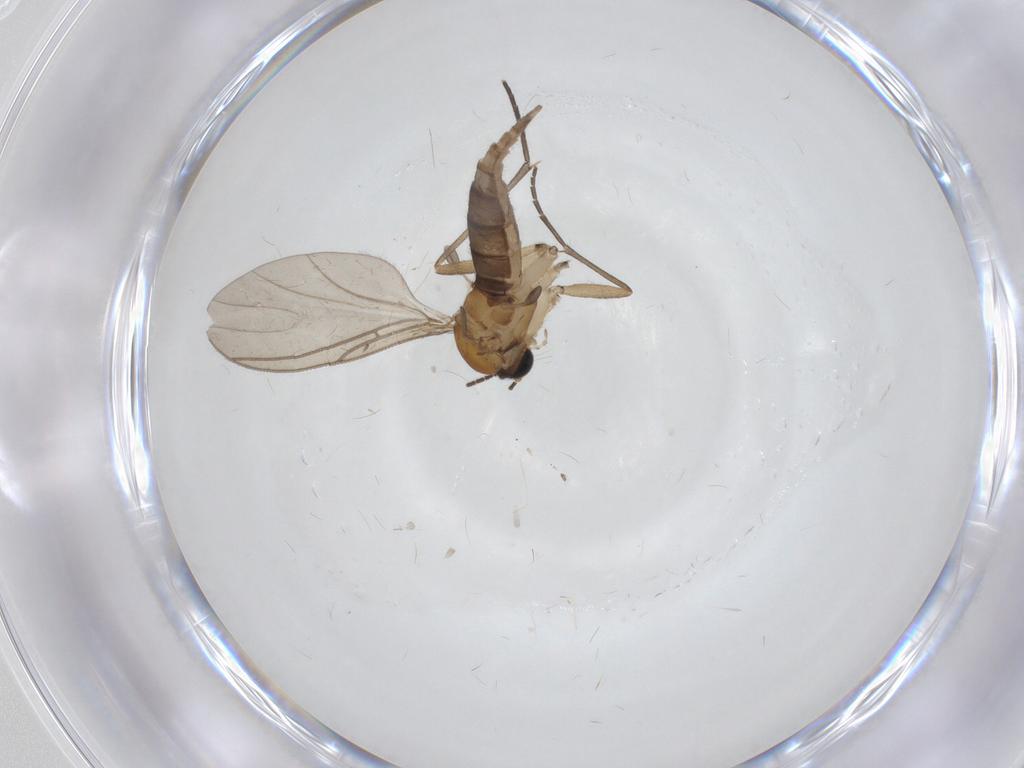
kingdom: Animalia
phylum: Arthropoda
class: Insecta
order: Diptera
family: Cecidomyiidae
